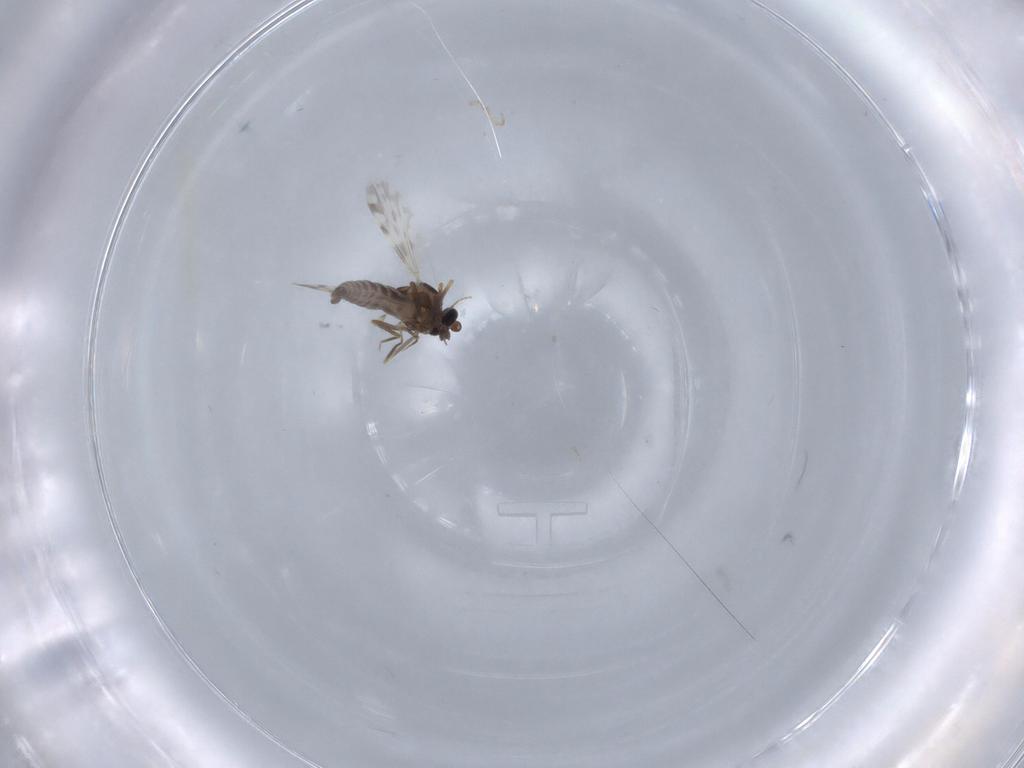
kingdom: Animalia
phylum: Arthropoda
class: Insecta
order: Diptera
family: Ceratopogonidae
